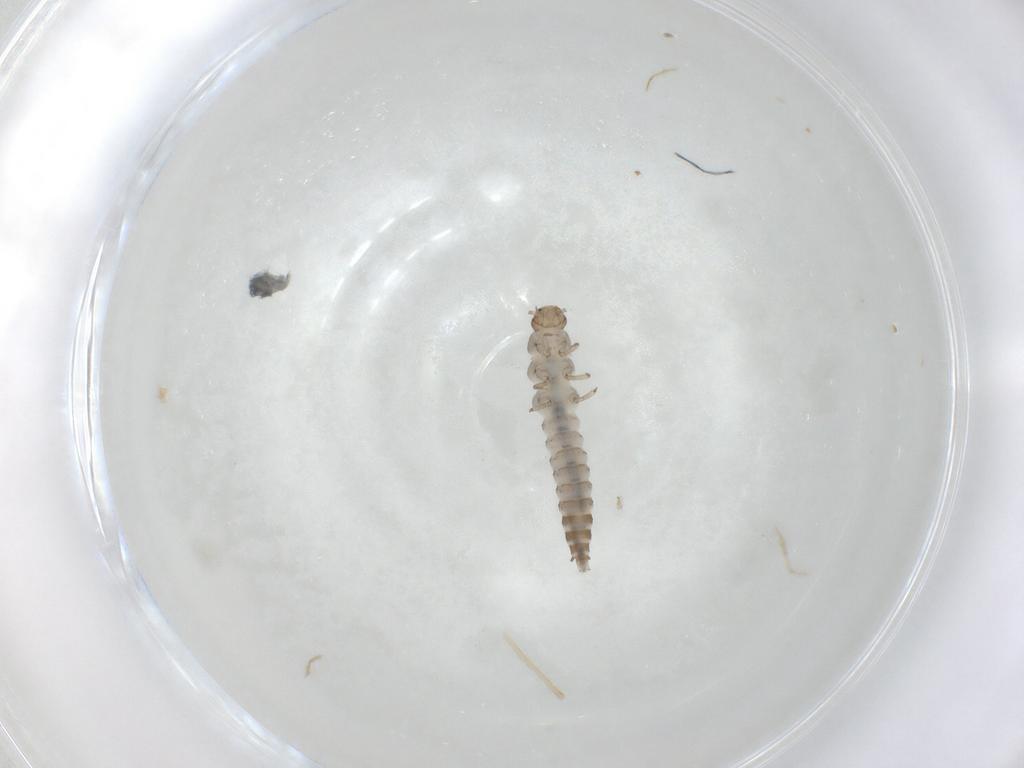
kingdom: Animalia
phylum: Arthropoda
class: Insecta
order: Coleoptera
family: Hydraenidae
